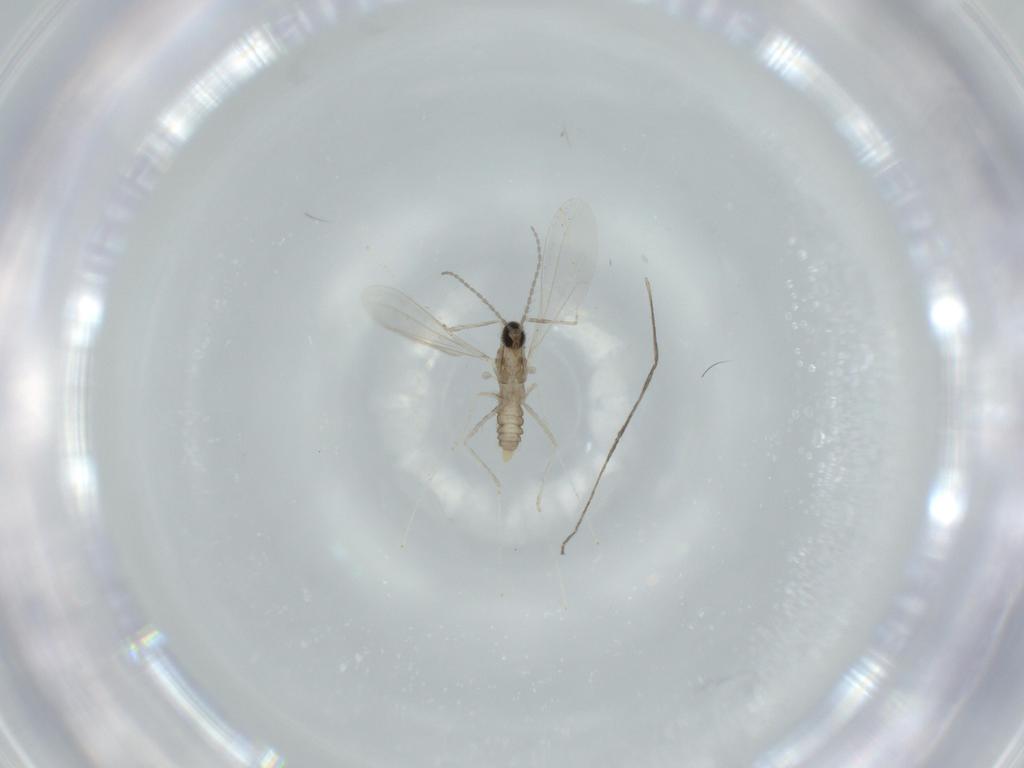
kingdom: Animalia
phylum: Arthropoda
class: Insecta
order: Diptera
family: Cecidomyiidae
